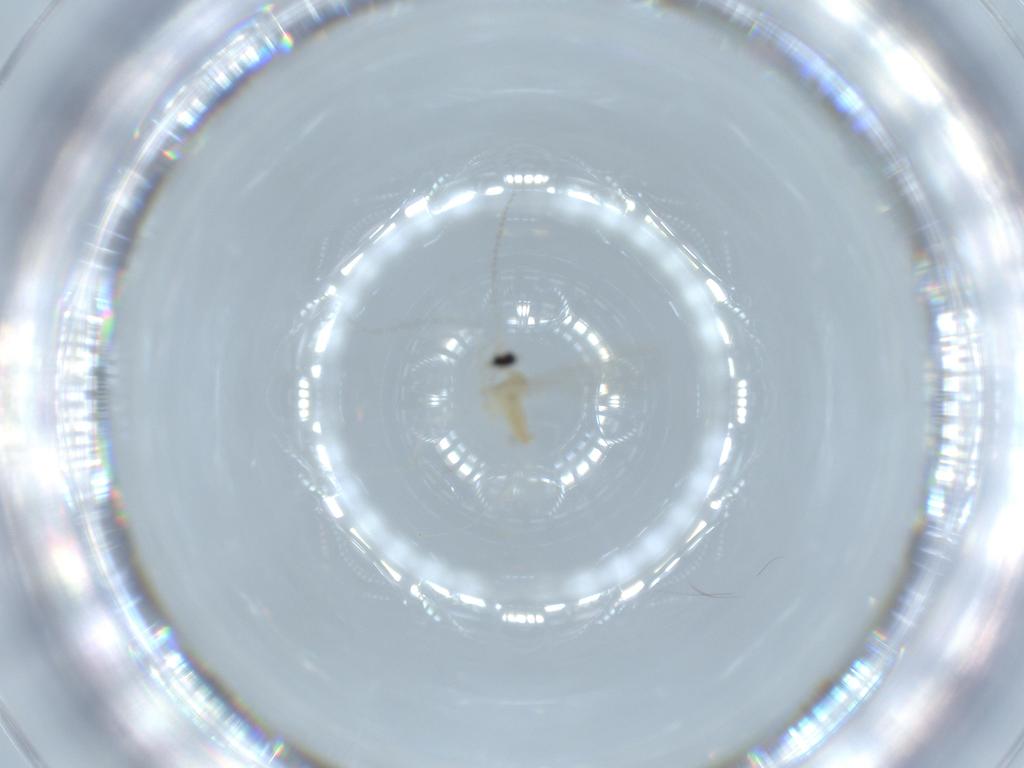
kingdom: Animalia
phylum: Arthropoda
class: Insecta
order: Diptera
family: Cecidomyiidae
